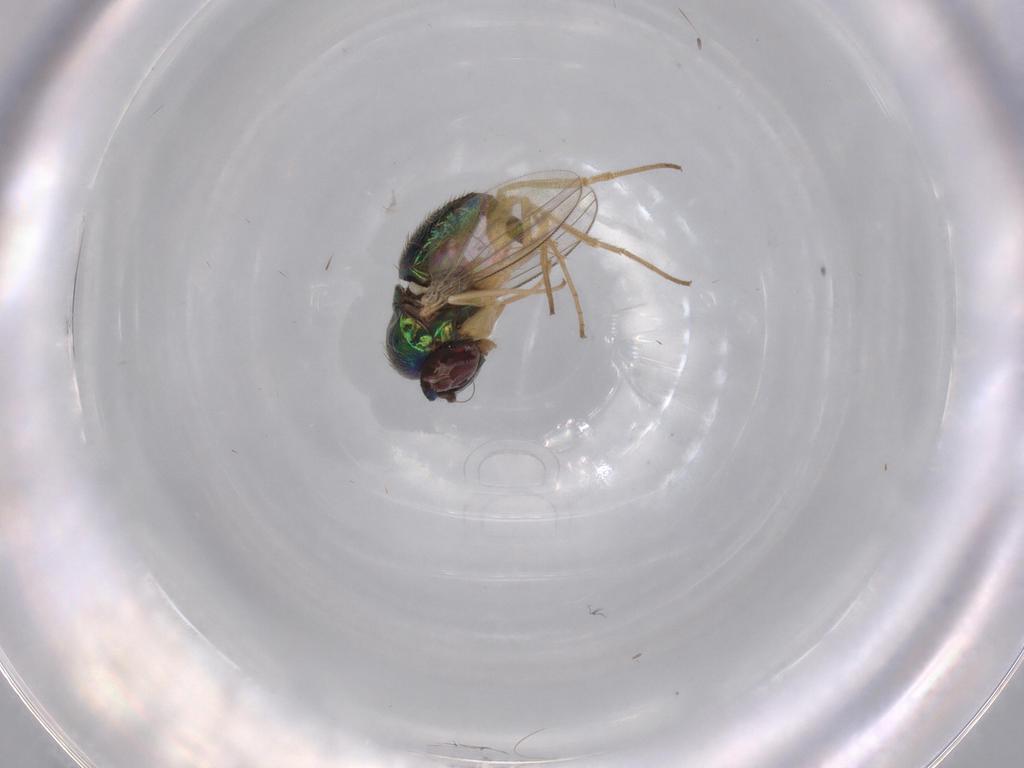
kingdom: Animalia
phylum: Arthropoda
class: Insecta
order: Diptera
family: Dolichopodidae
